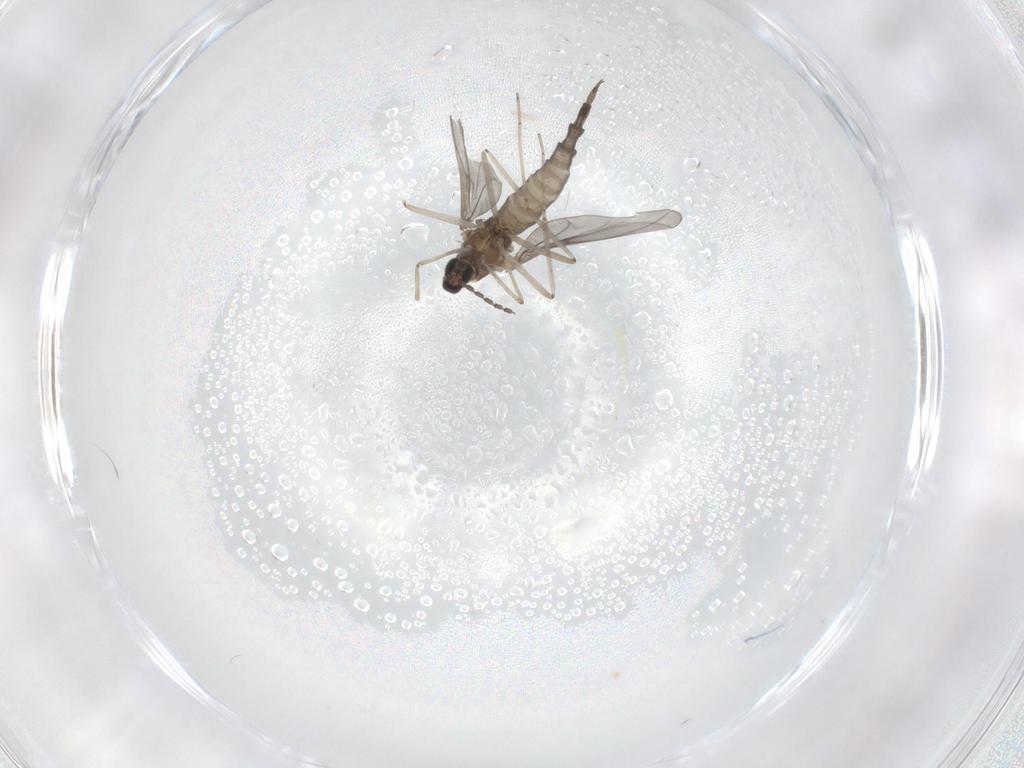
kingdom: Animalia
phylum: Arthropoda
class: Insecta
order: Diptera
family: Cecidomyiidae
